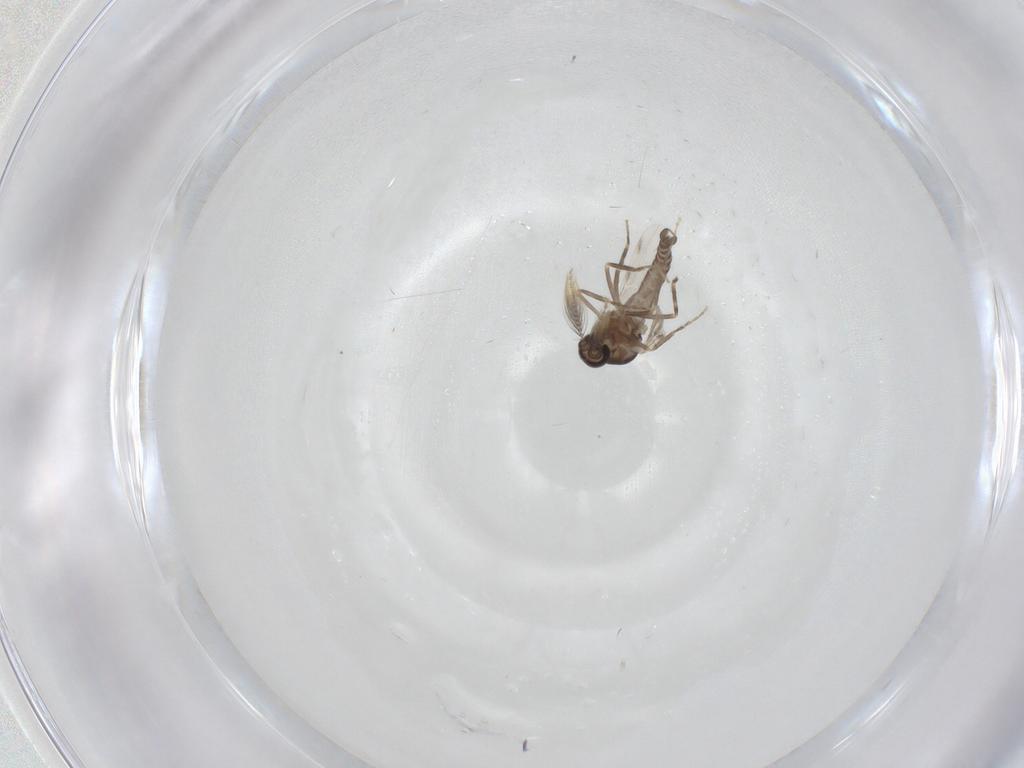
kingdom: Animalia
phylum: Arthropoda
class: Insecta
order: Diptera
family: Ceratopogonidae
